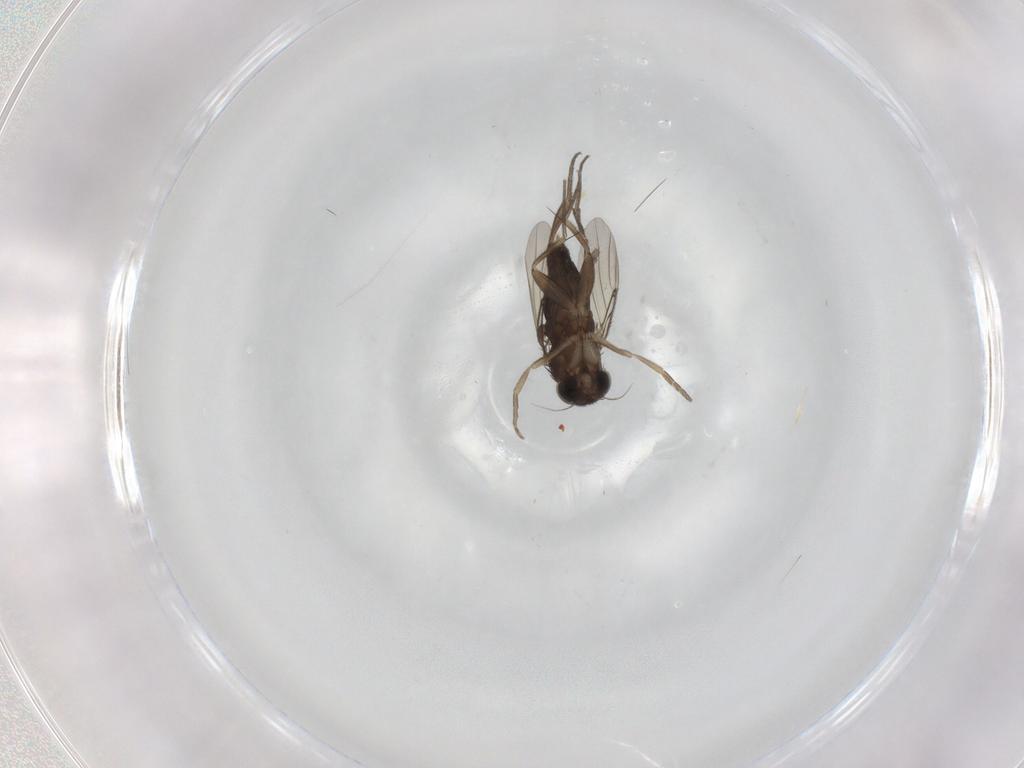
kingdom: Animalia
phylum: Arthropoda
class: Insecta
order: Diptera
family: Phoridae
